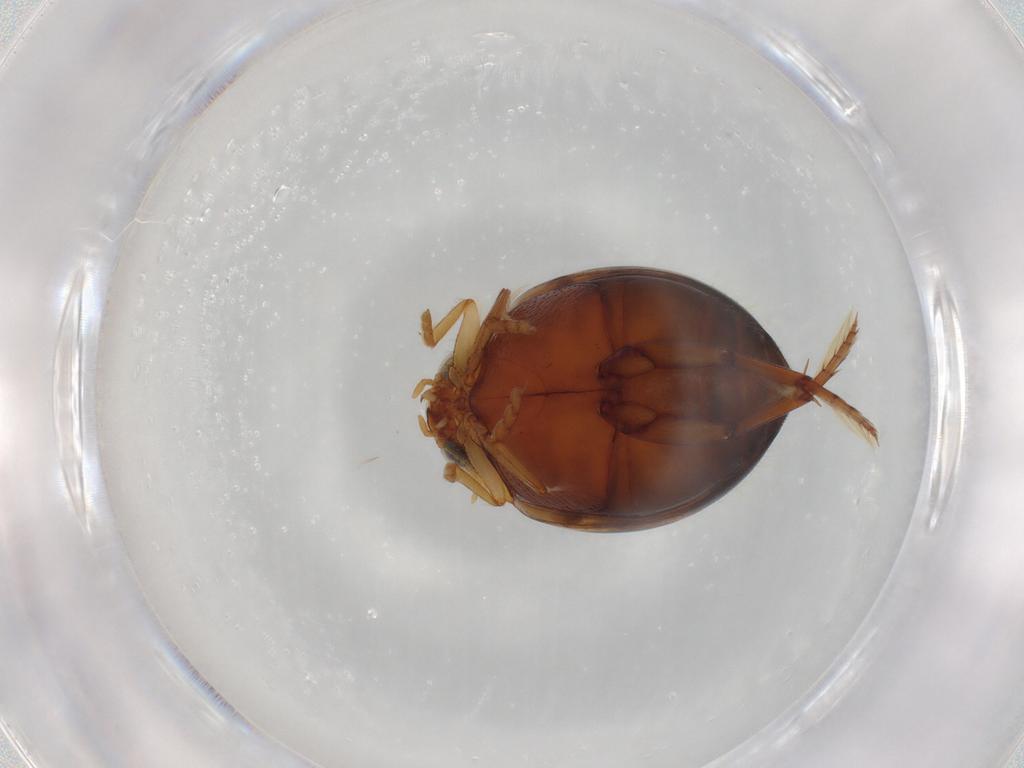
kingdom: Animalia
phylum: Arthropoda
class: Insecta
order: Coleoptera
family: Dytiscidae
